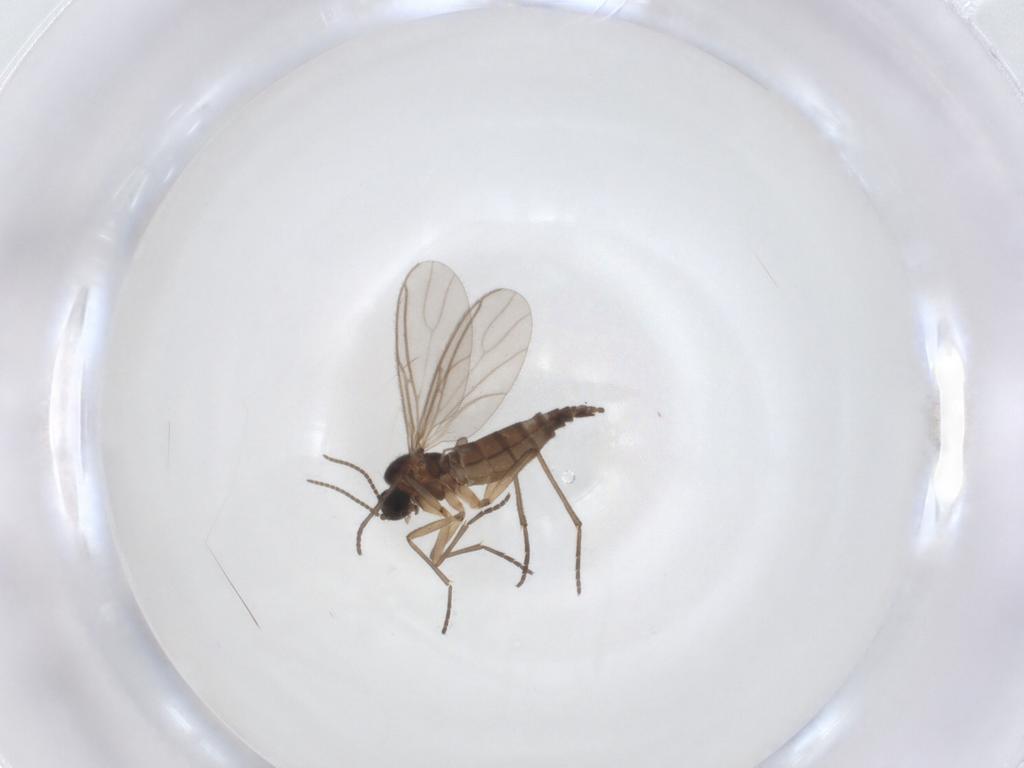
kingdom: Animalia
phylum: Arthropoda
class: Insecta
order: Diptera
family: Sciaridae
